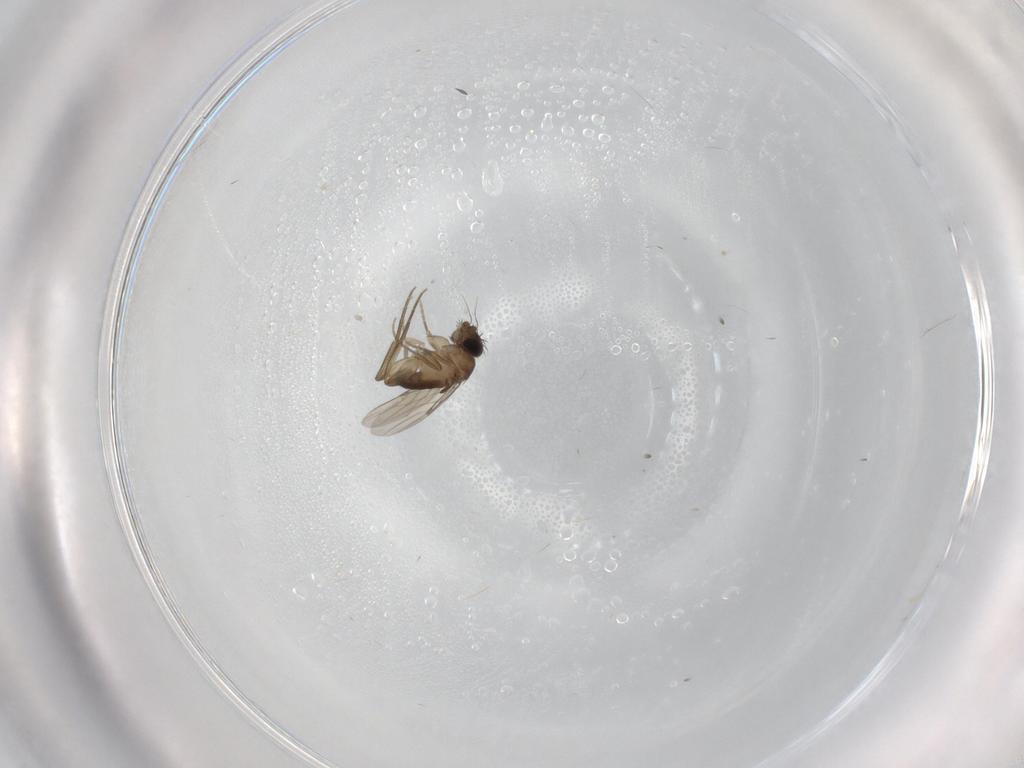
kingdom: Animalia
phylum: Arthropoda
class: Insecta
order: Diptera
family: Phoridae
